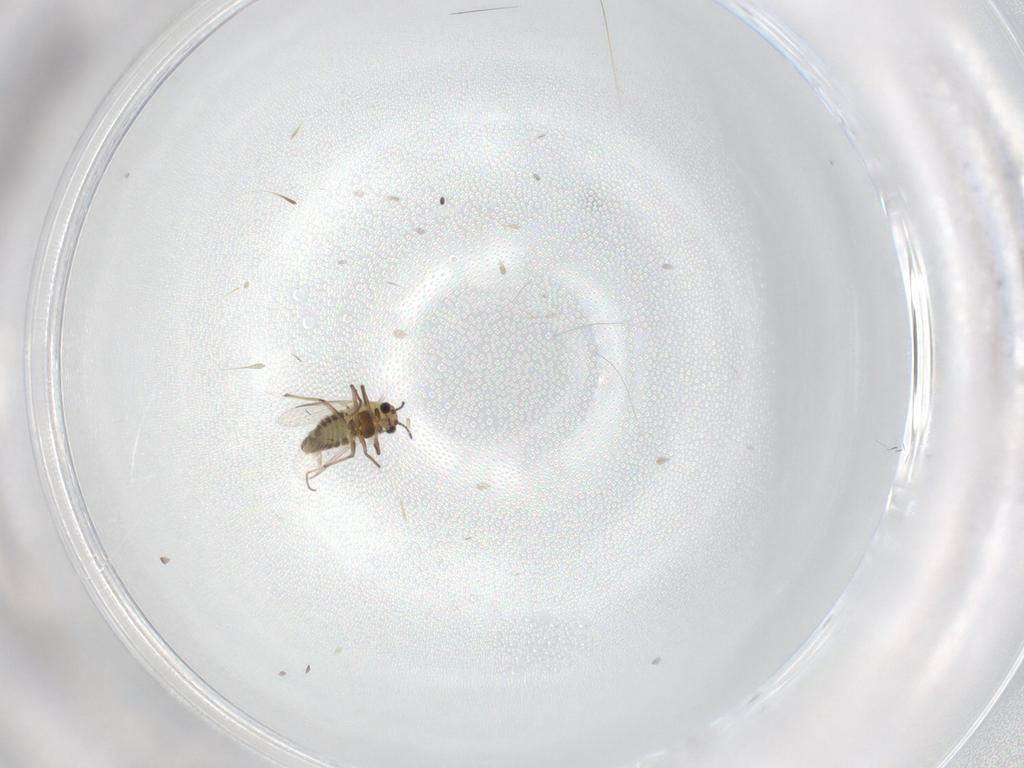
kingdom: Animalia
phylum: Arthropoda
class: Insecta
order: Diptera
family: Chironomidae
